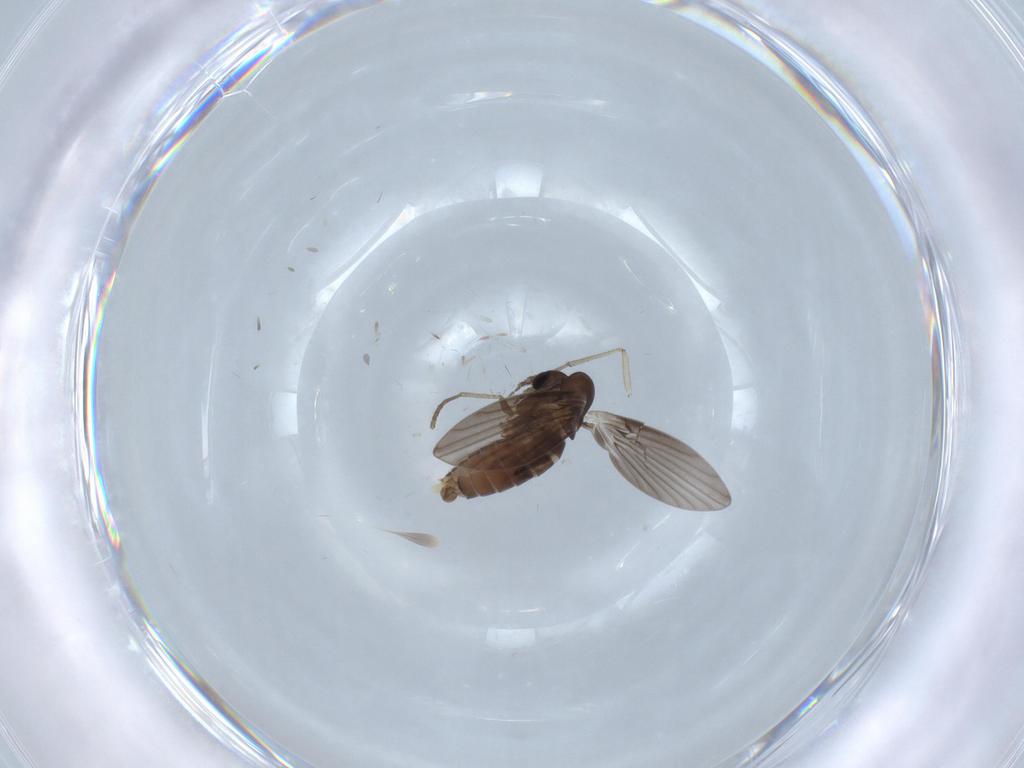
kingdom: Animalia
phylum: Arthropoda
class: Insecta
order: Diptera
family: Psychodidae
